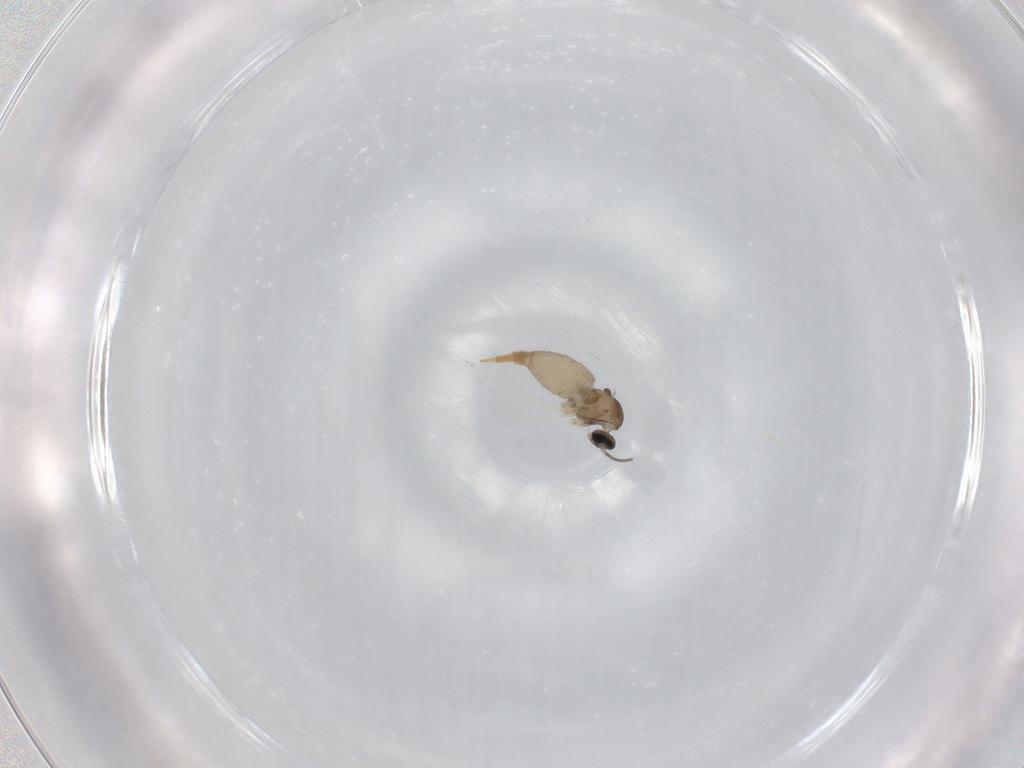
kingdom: Animalia
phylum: Arthropoda
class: Insecta
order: Diptera
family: Cecidomyiidae
